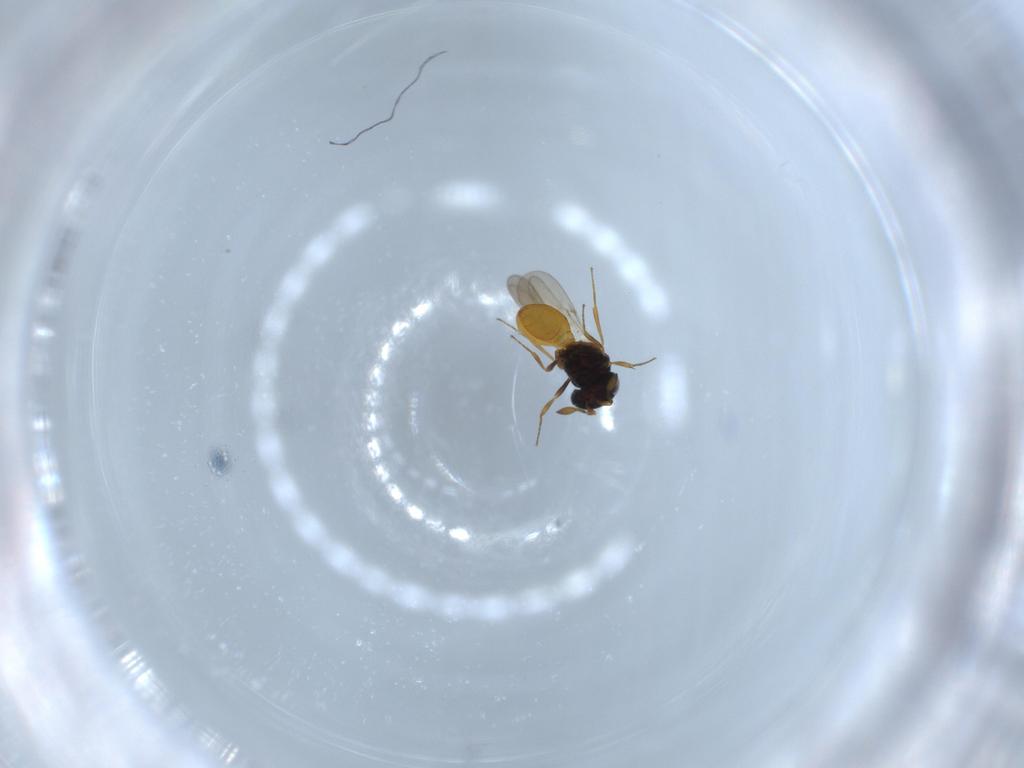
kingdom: Animalia
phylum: Arthropoda
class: Insecta
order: Hymenoptera
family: Scelionidae
